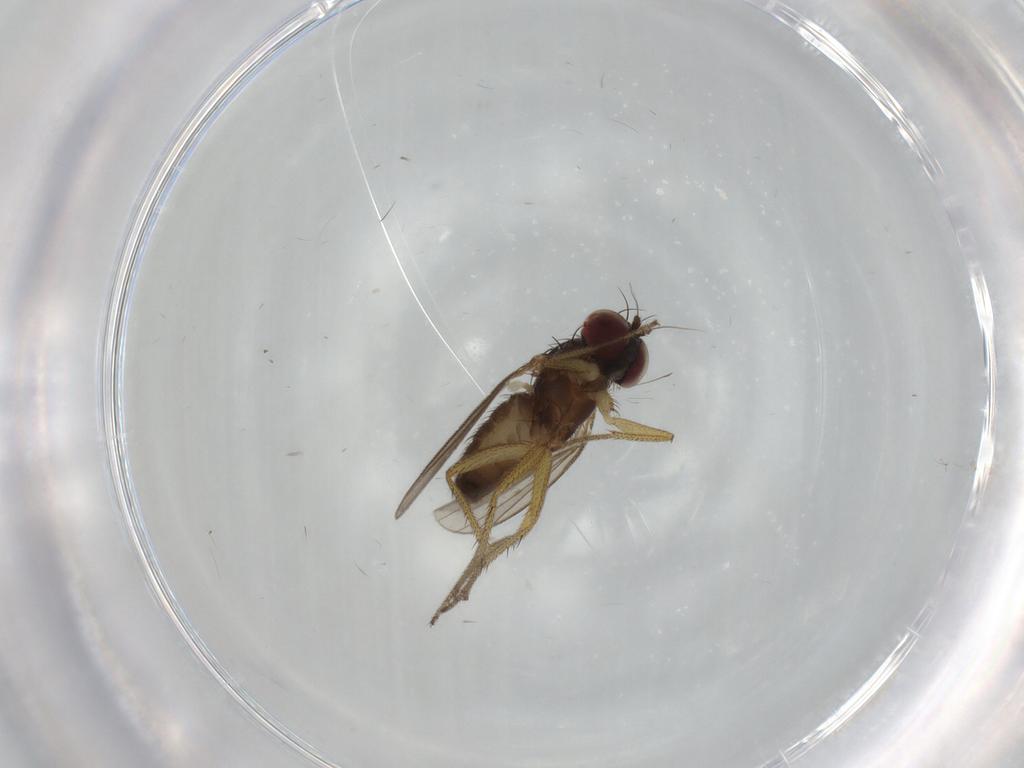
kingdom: Animalia
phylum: Arthropoda
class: Insecta
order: Diptera
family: Dolichopodidae
